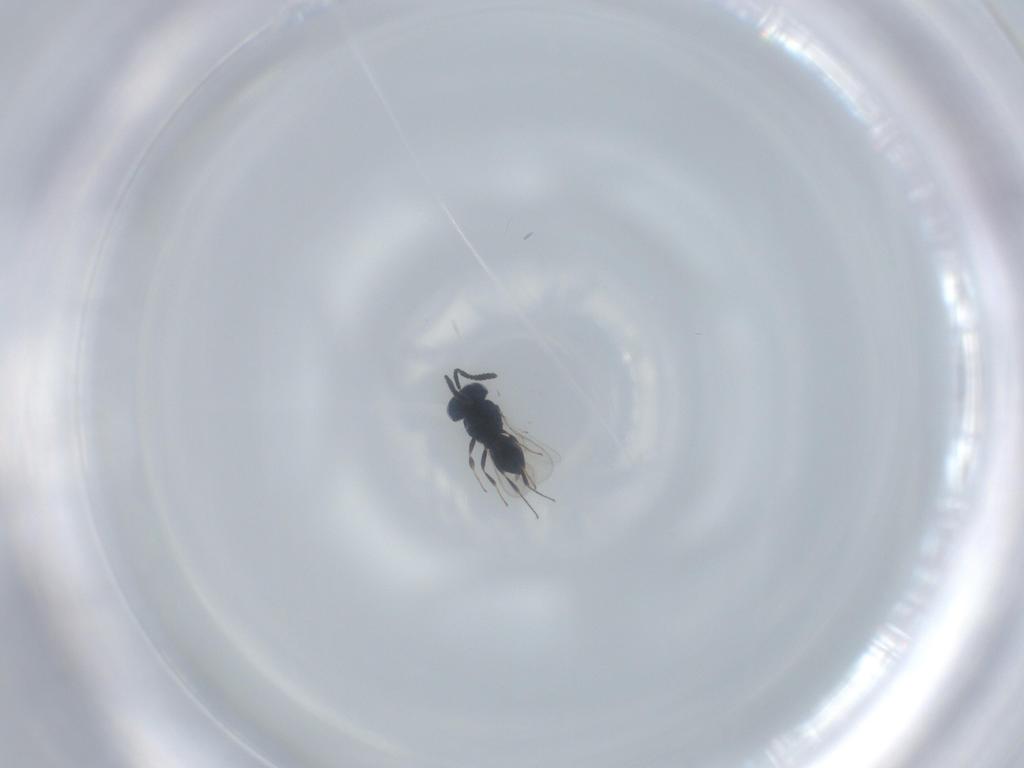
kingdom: Animalia
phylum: Arthropoda
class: Insecta
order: Hymenoptera
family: Scelionidae
